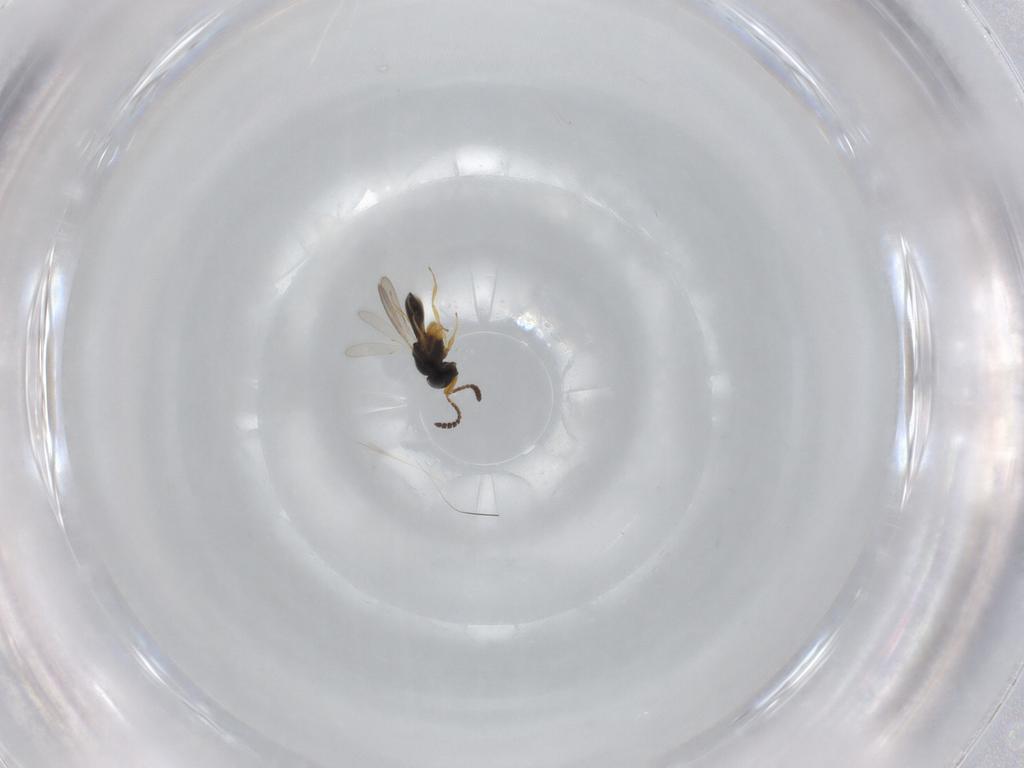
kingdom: Animalia
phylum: Arthropoda
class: Insecta
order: Hymenoptera
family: Scelionidae
